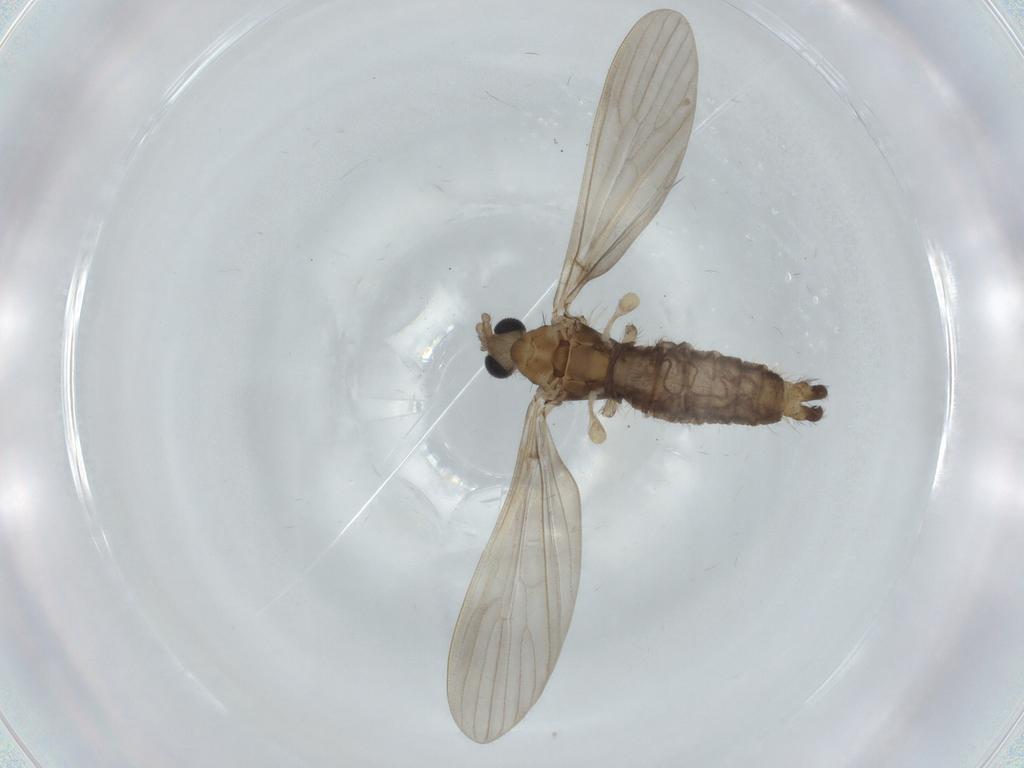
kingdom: Animalia
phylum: Arthropoda
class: Insecta
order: Diptera
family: Limoniidae
